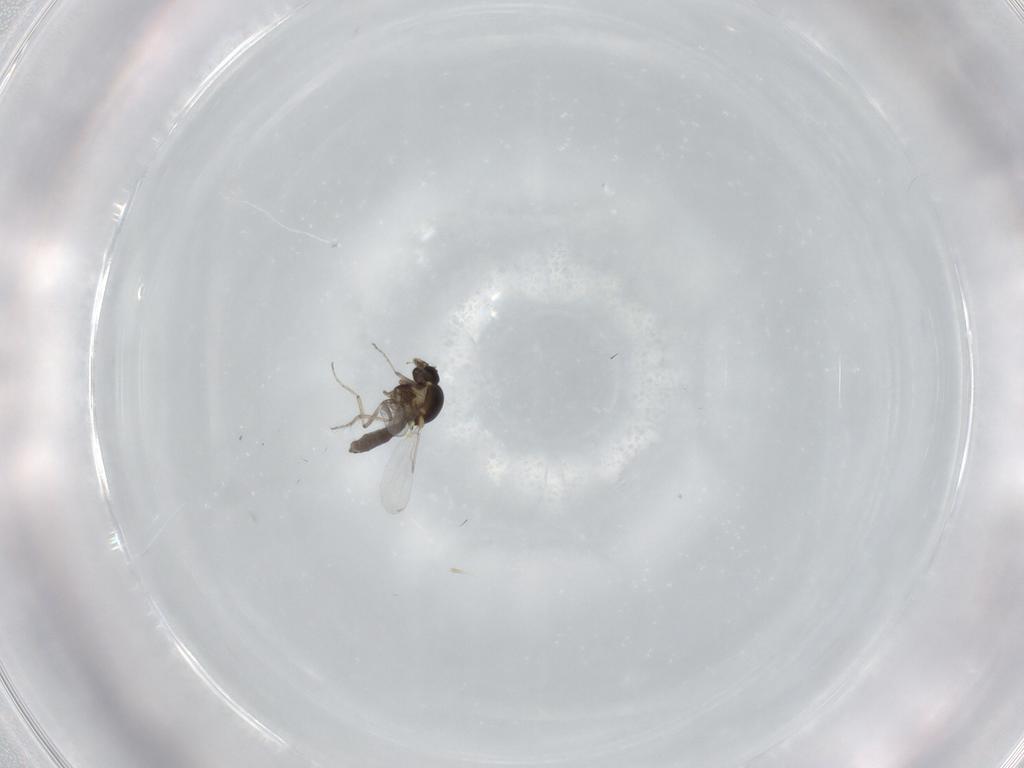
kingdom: Animalia
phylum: Arthropoda
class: Insecta
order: Diptera
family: Ceratopogonidae
